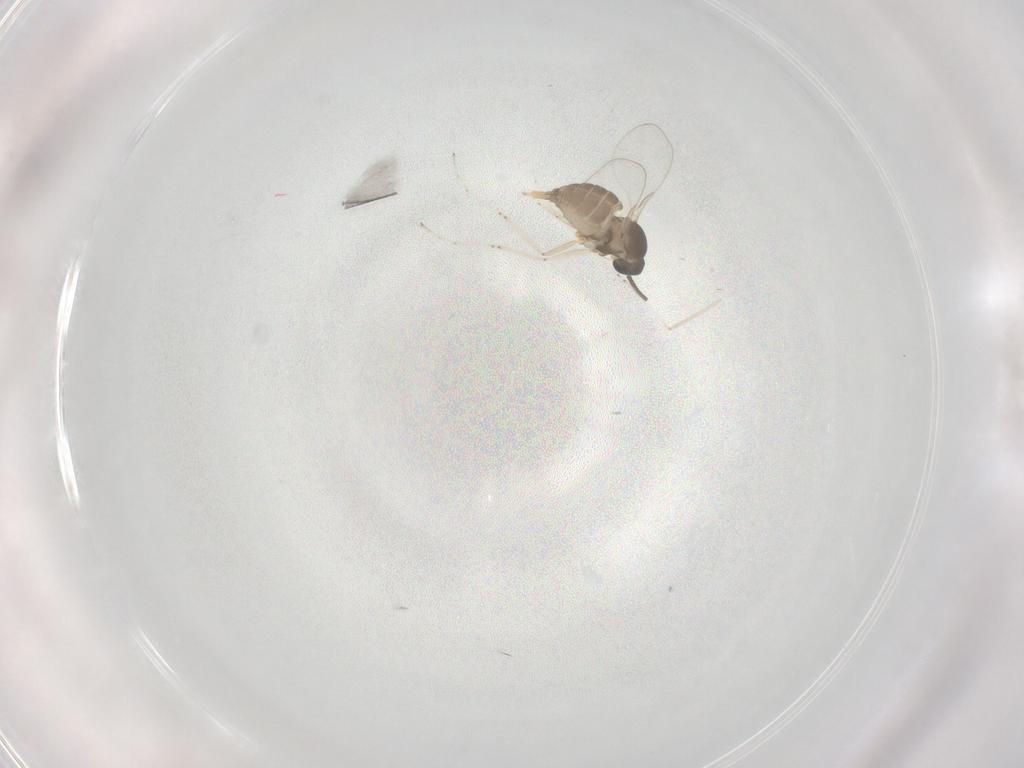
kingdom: Animalia
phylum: Arthropoda
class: Insecta
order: Diptera
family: Cecidomyiidae
